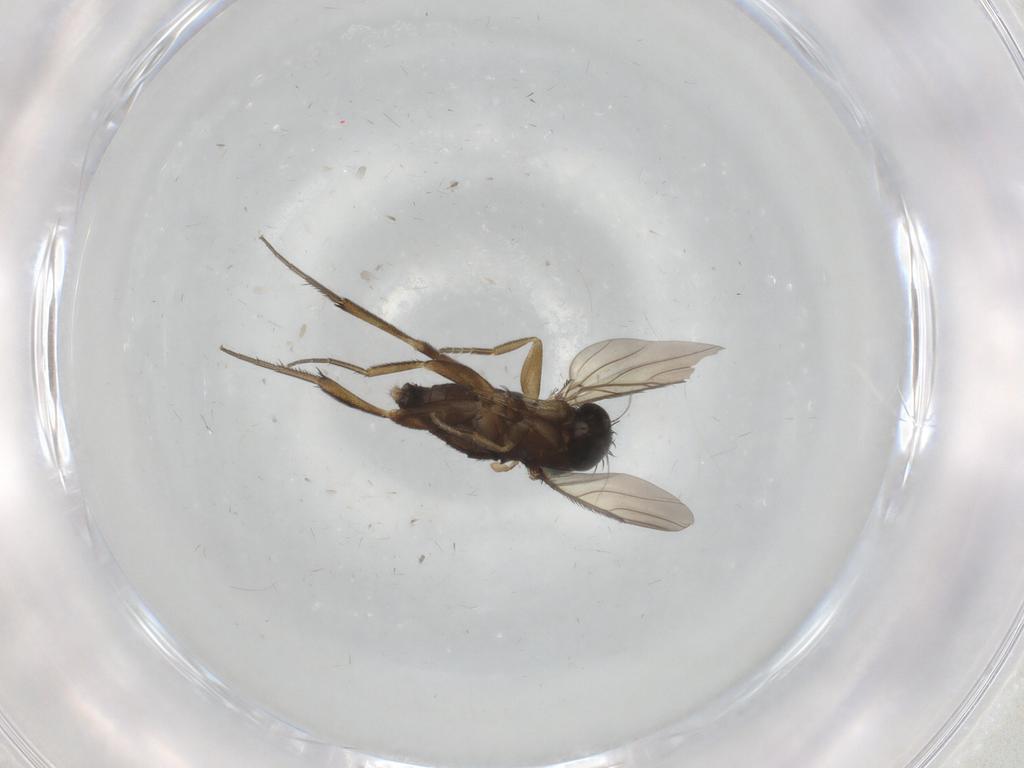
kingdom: Animalia
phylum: Arthropoda
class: Insecta
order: Diptera
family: Phoridae
